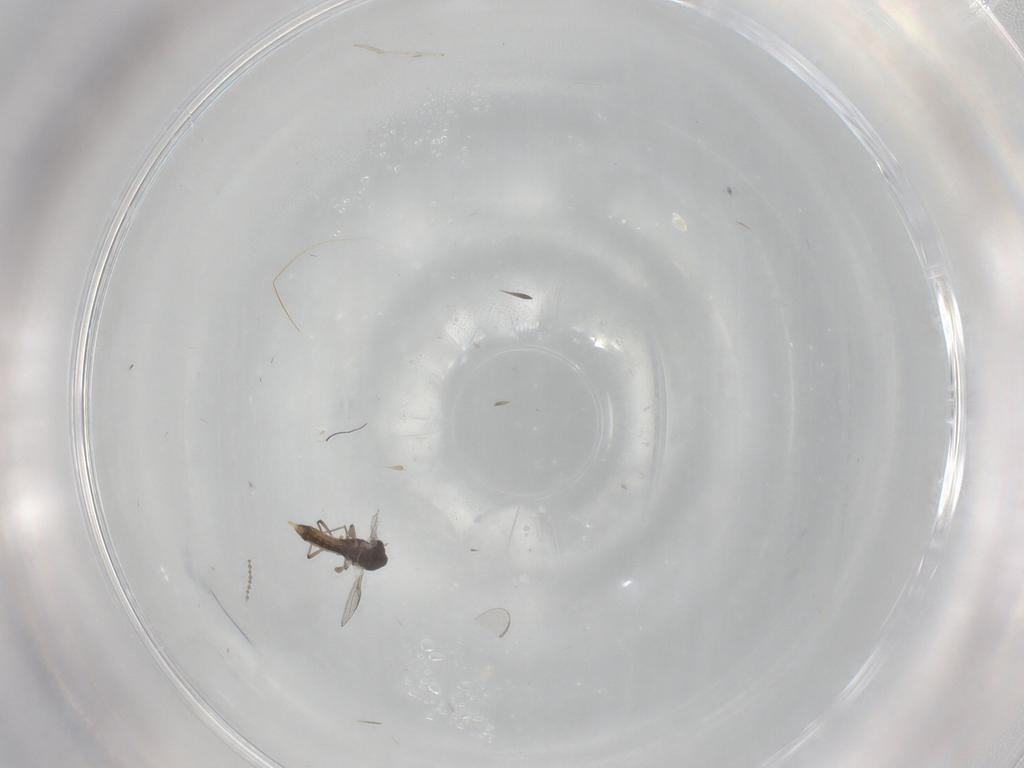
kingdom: Animalia
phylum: Arthropoda
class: Insecta
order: Diptera
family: Cecidomyiidae
